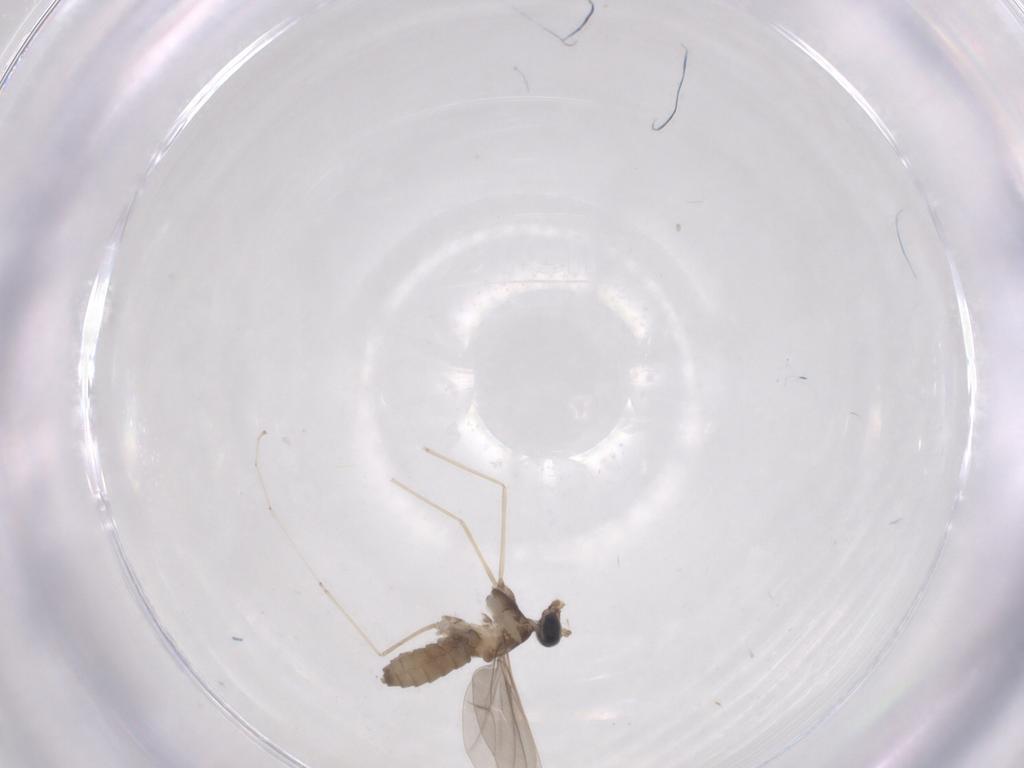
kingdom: Animalia
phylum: Arthropoda
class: Insecta
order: Diptera
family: Cecidomyiidae
